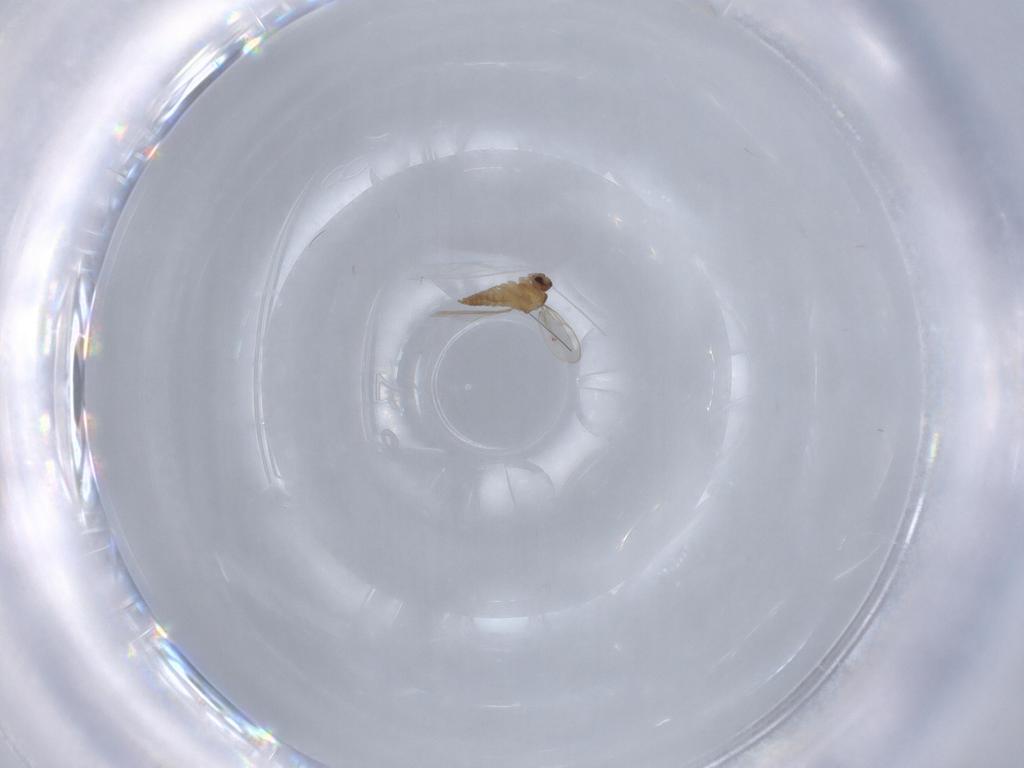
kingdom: Animalia
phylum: Arthropoda
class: Insecta
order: Diptera
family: Cecidomyiidae
